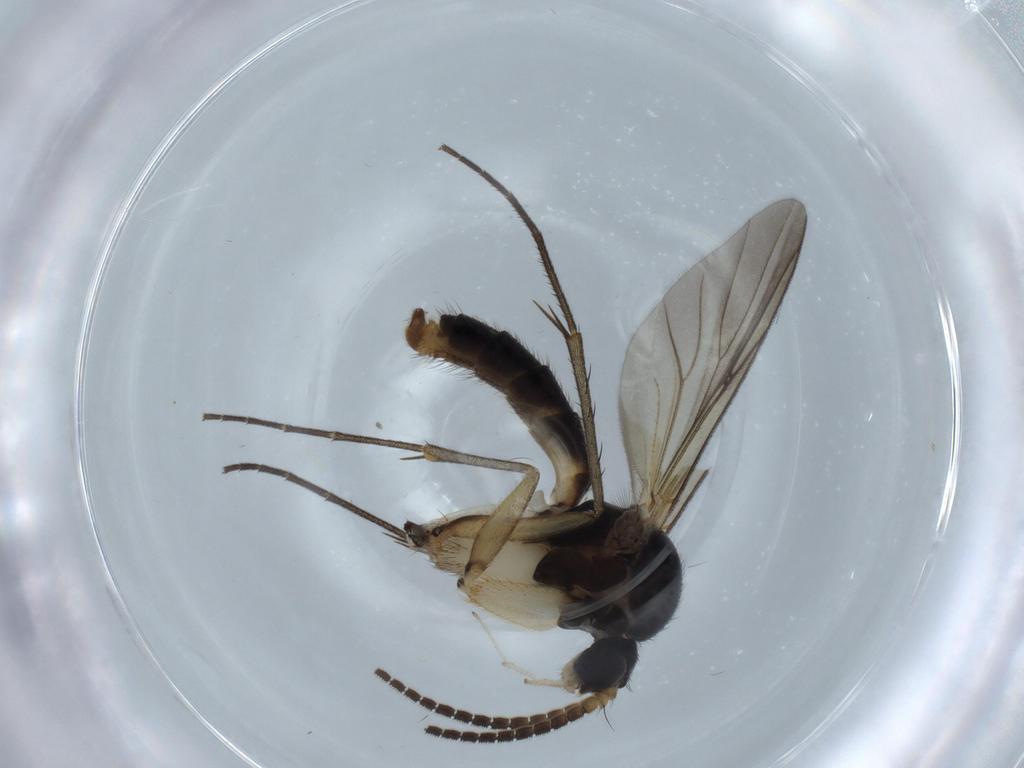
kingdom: Animalia
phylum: Arthropoda
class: Insecta
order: Diptera
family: Mycetophilidae
